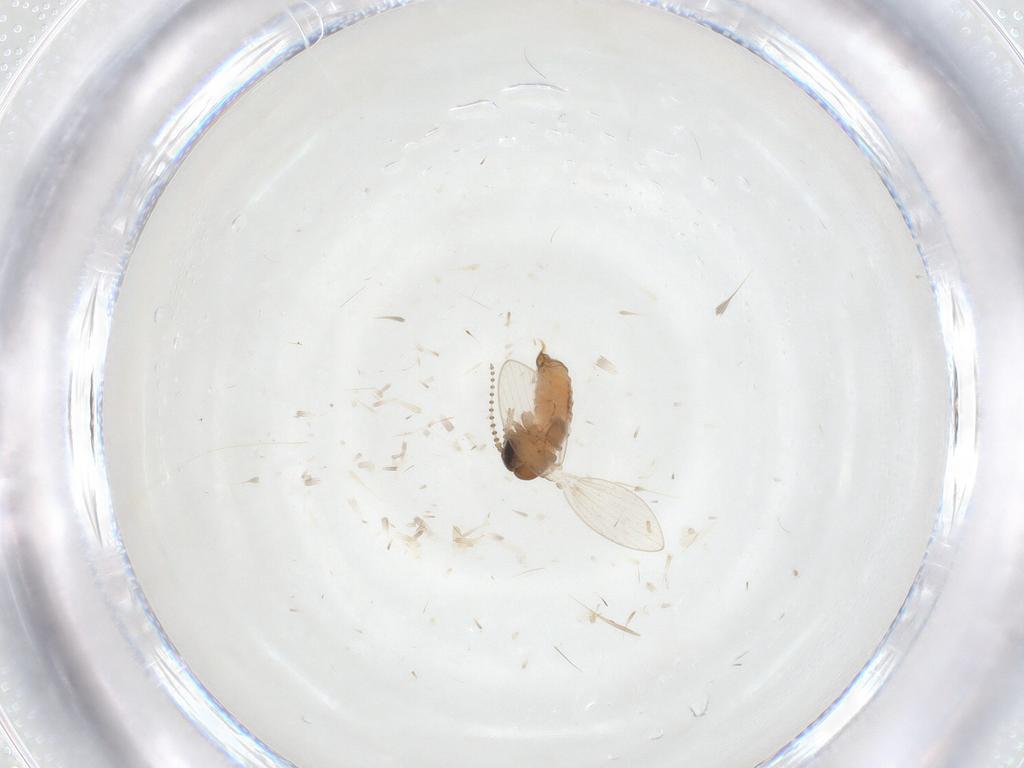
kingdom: Animalia
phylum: Arthropoda
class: Insecta
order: Diptera
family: Psychodidae
